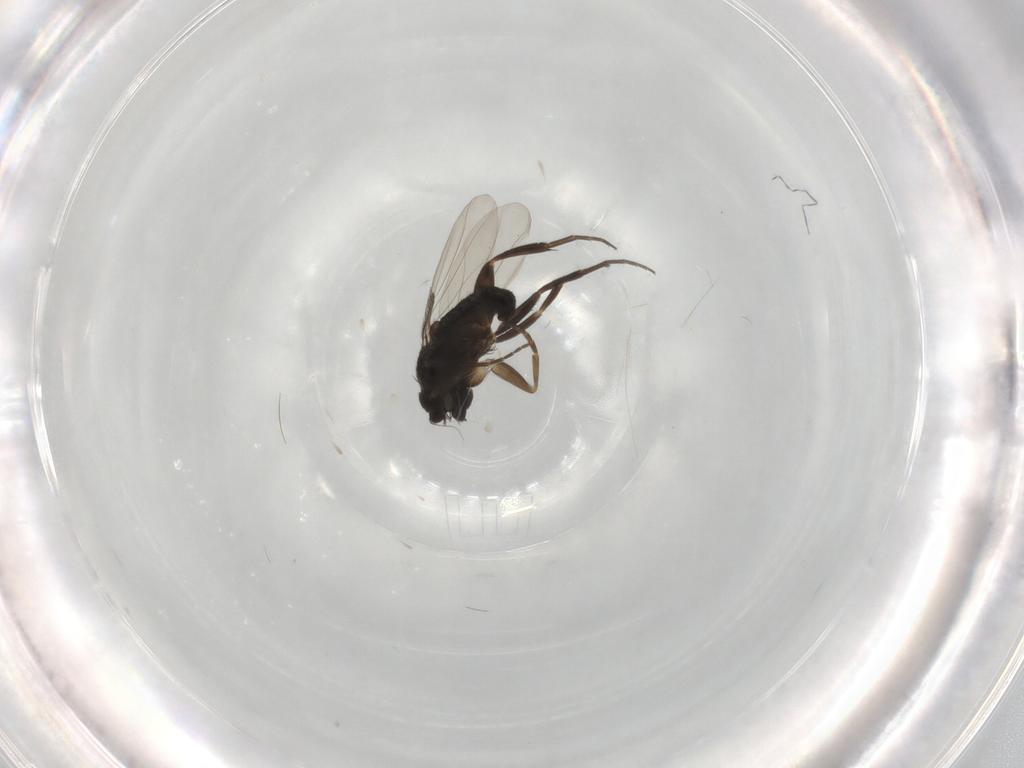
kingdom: Animalia
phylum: Arthropoda
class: Insecta
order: Diptera
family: Phoridae
